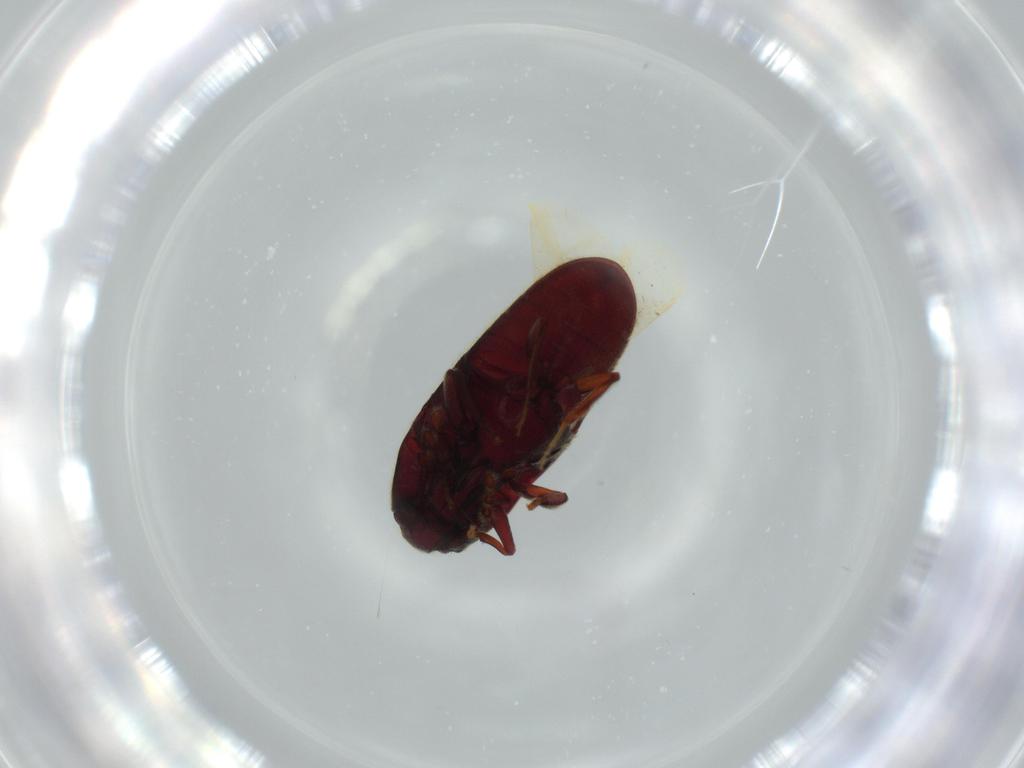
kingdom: Animalia
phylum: Arthropoda
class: Insecta
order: Coleoptera
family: Throscidae
